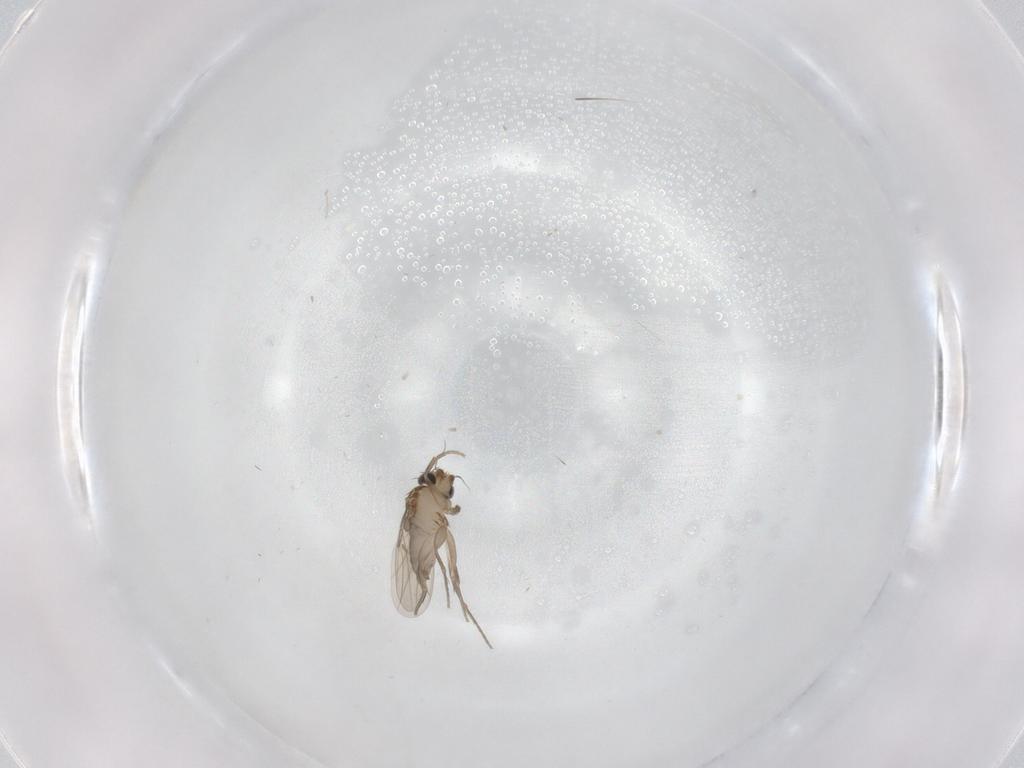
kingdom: Animalia
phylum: Arthropoda
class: Insecta
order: Diptera
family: Phoridae
